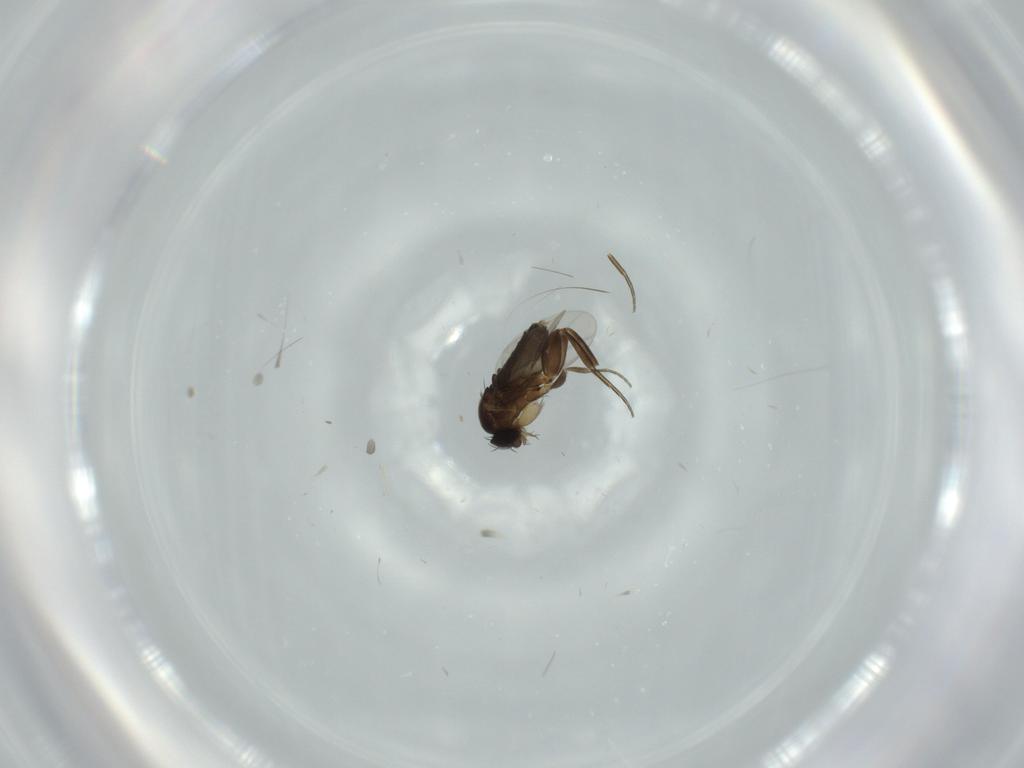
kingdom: Animalia
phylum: Arthropoda
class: Insecta
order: Diptera
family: Phoridae
